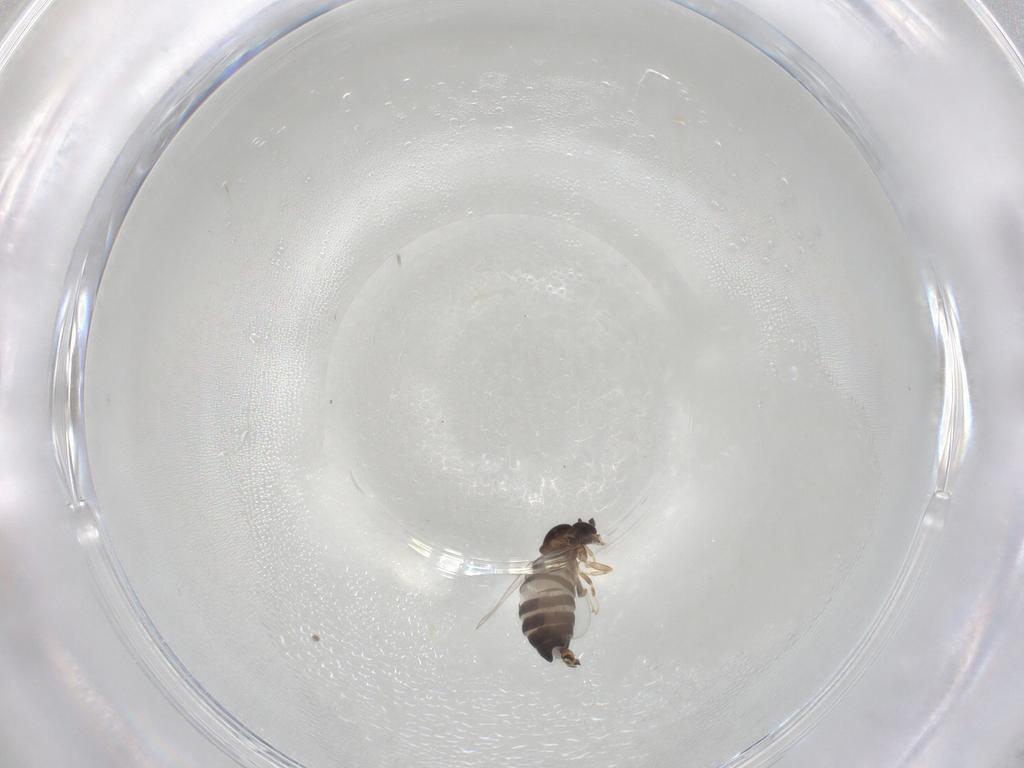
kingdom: Animalia
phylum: Arthropoda
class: Insecta
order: Diptera
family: Scatopsidae
